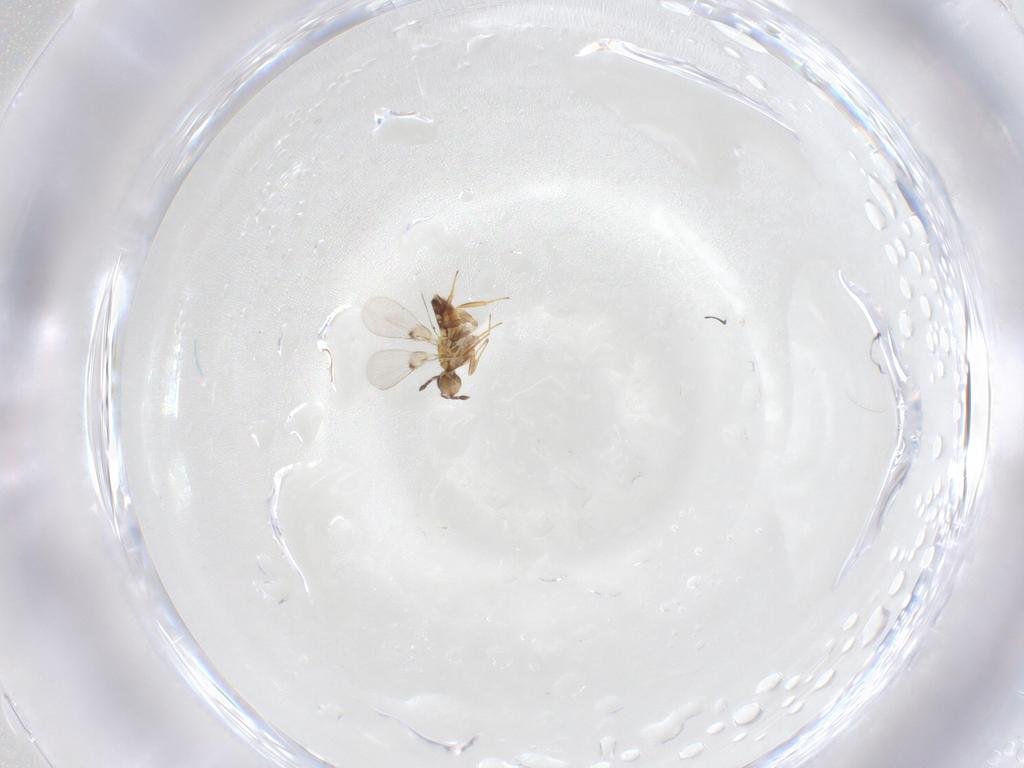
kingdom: Animalia
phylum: Arthropoda
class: Insecta
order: Hymenoptera
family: Trichogrammatidae
